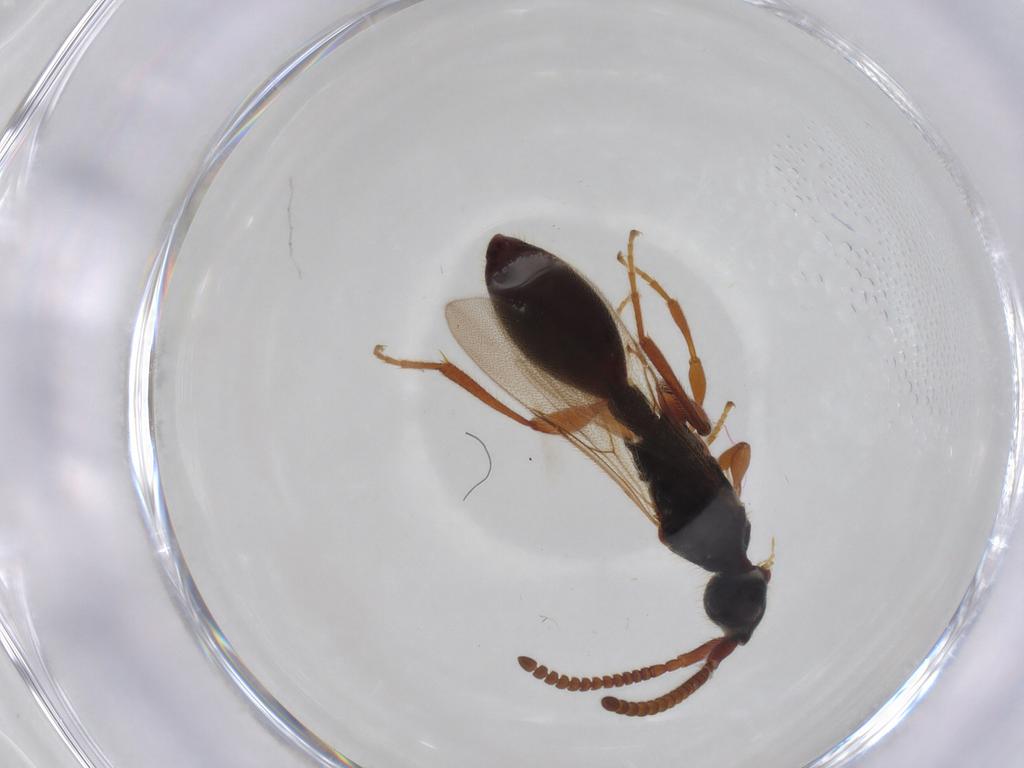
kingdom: Animalia
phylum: Arthropoda
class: Insecta
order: Hymenoptera
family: Diapriidae
